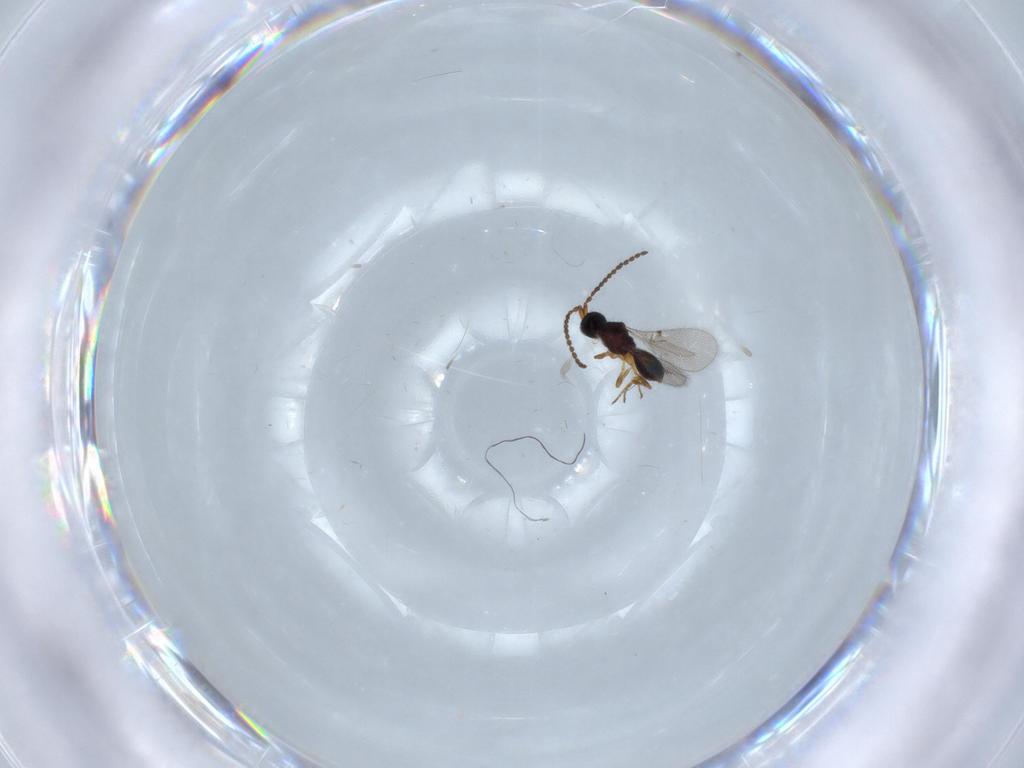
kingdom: Animalia
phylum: Arthropoda
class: Insecta
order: Hymenoptera
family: Diapriidae
